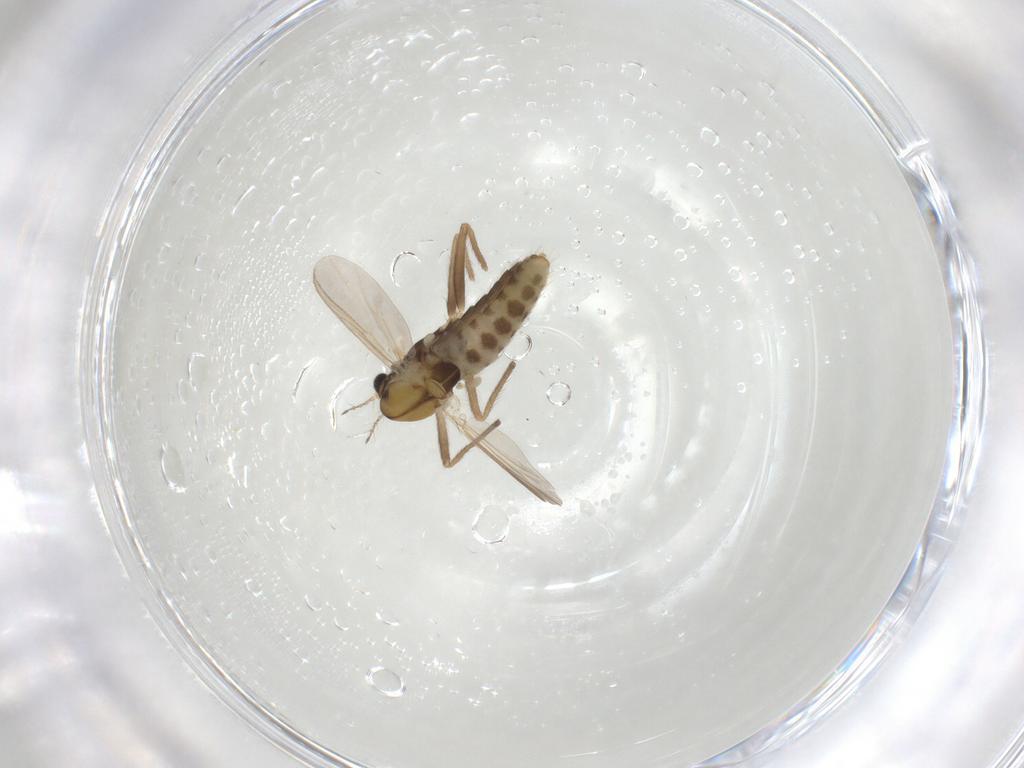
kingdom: Animalia
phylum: Arthropoda
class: Insecta
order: Diptera
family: Chironomidae
